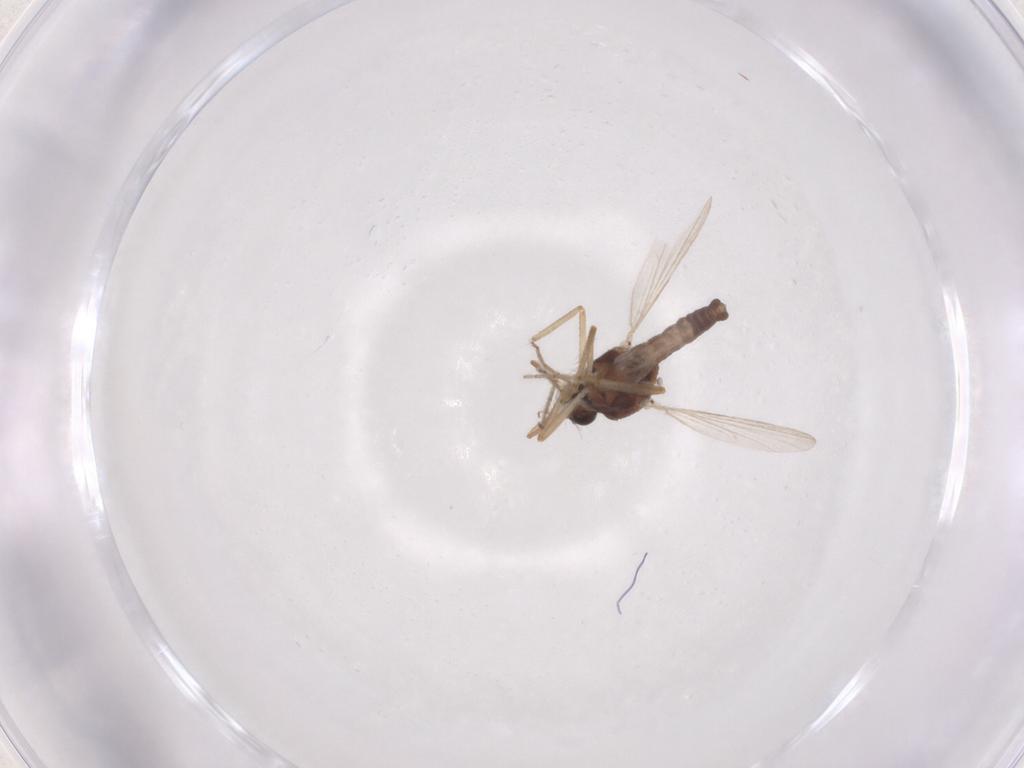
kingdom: Animalia
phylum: Arthropoda
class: Insecta
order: Diptera
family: Ceratopogonidae
